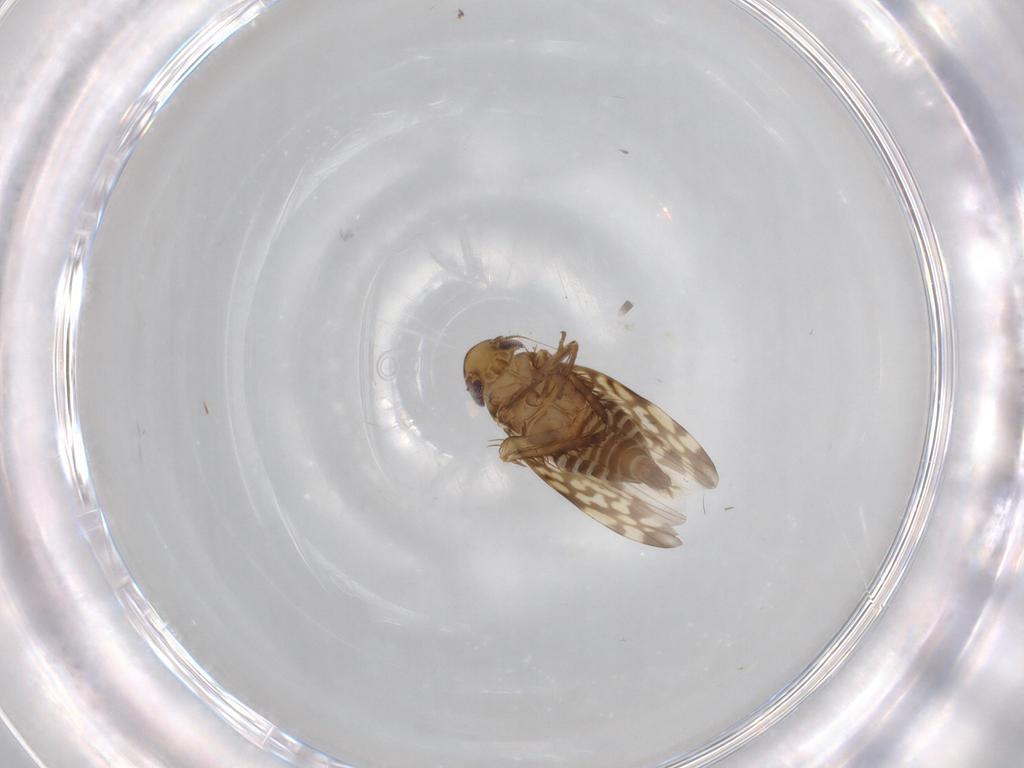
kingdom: Animalia
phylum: Arthropoda
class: Insecta
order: Hemiptera
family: Cicadellidae
